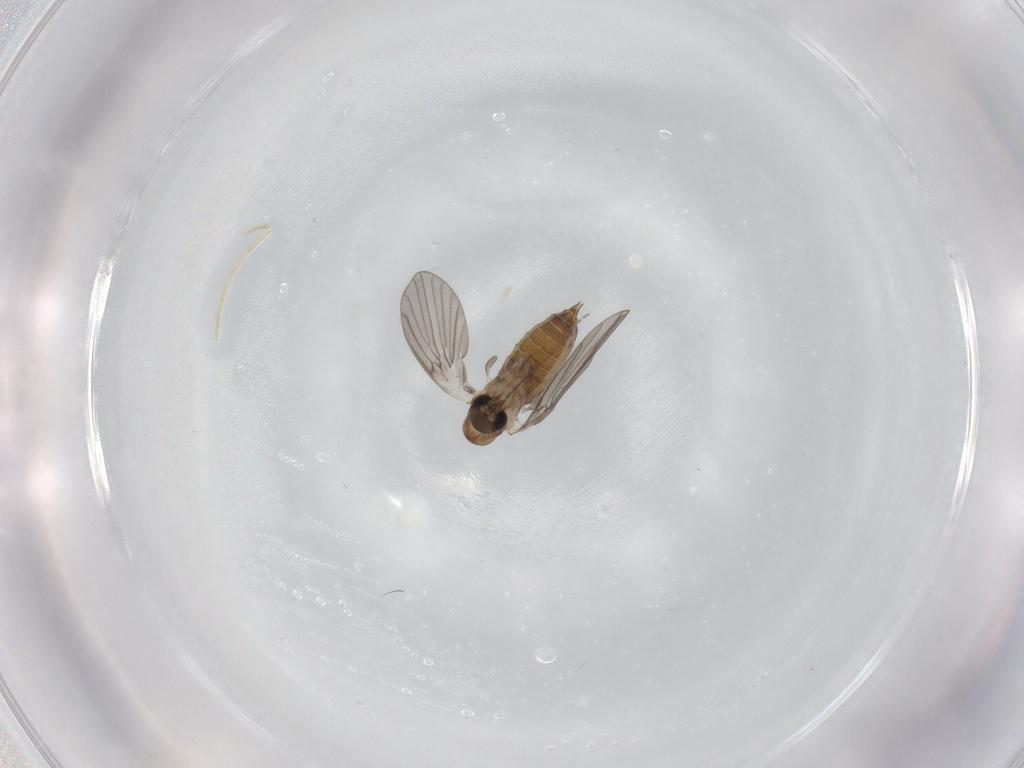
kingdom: Animalia
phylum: Arthropoda
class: Insecta
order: Diptera
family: Psychodidae
